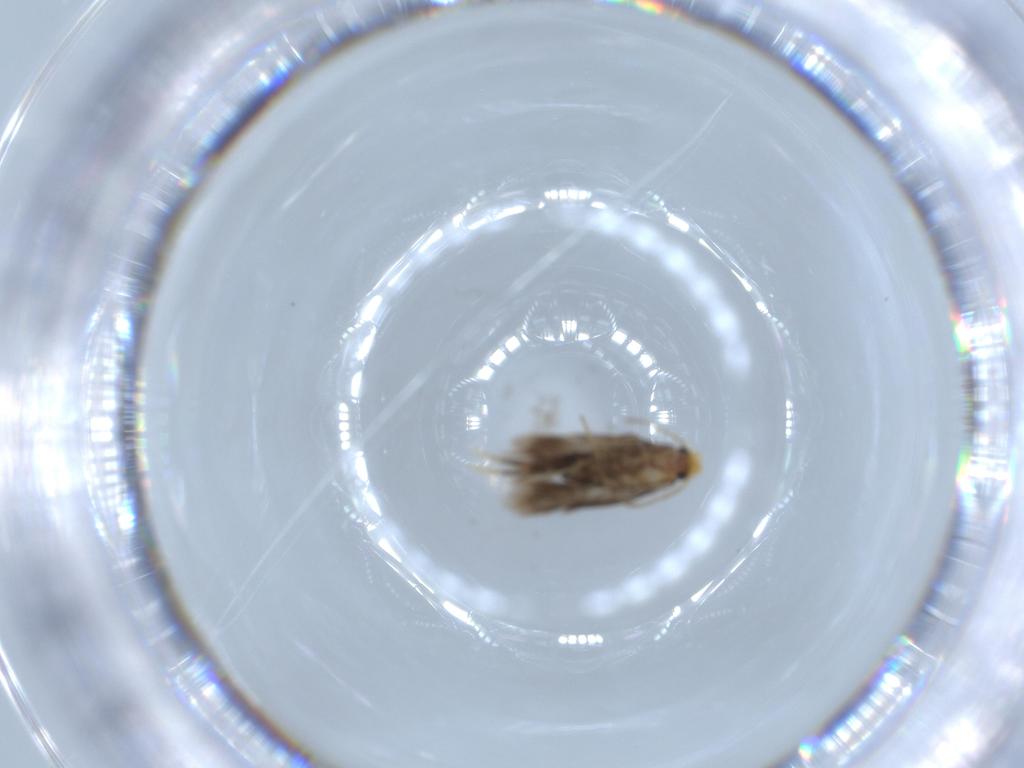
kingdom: Animalia
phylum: Arthropoda
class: Insecta
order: Lepidoptera
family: Nepticulidae
